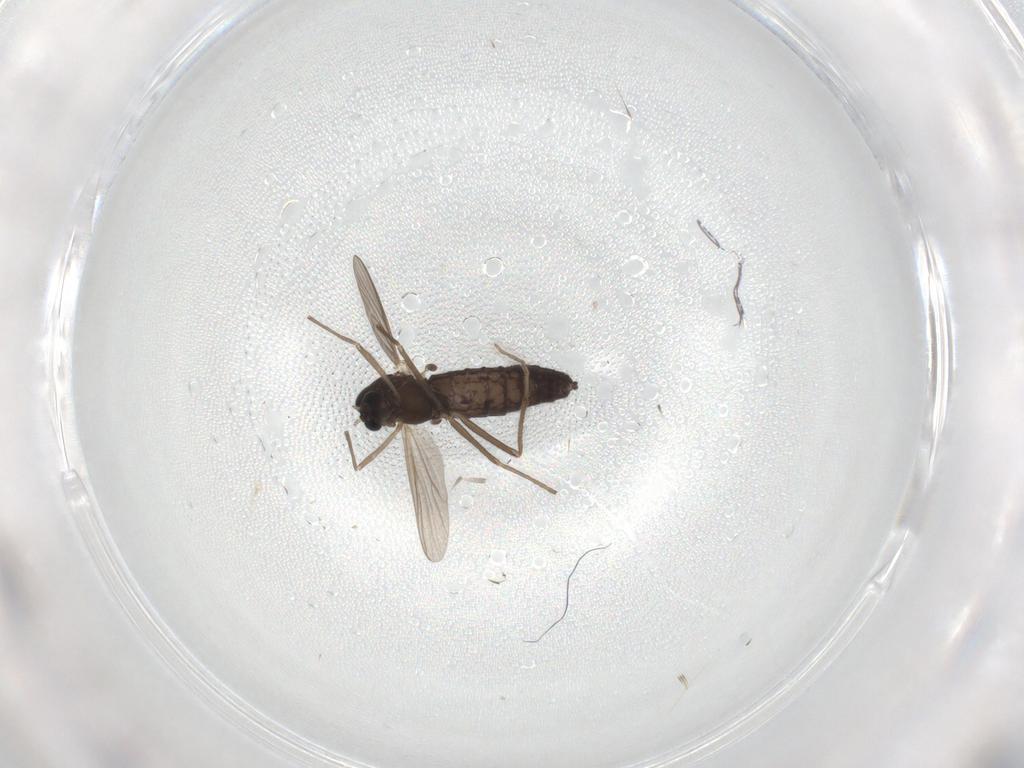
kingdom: Animalia
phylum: Arthropoda
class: Insecta
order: Diptera
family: Chironomidae
